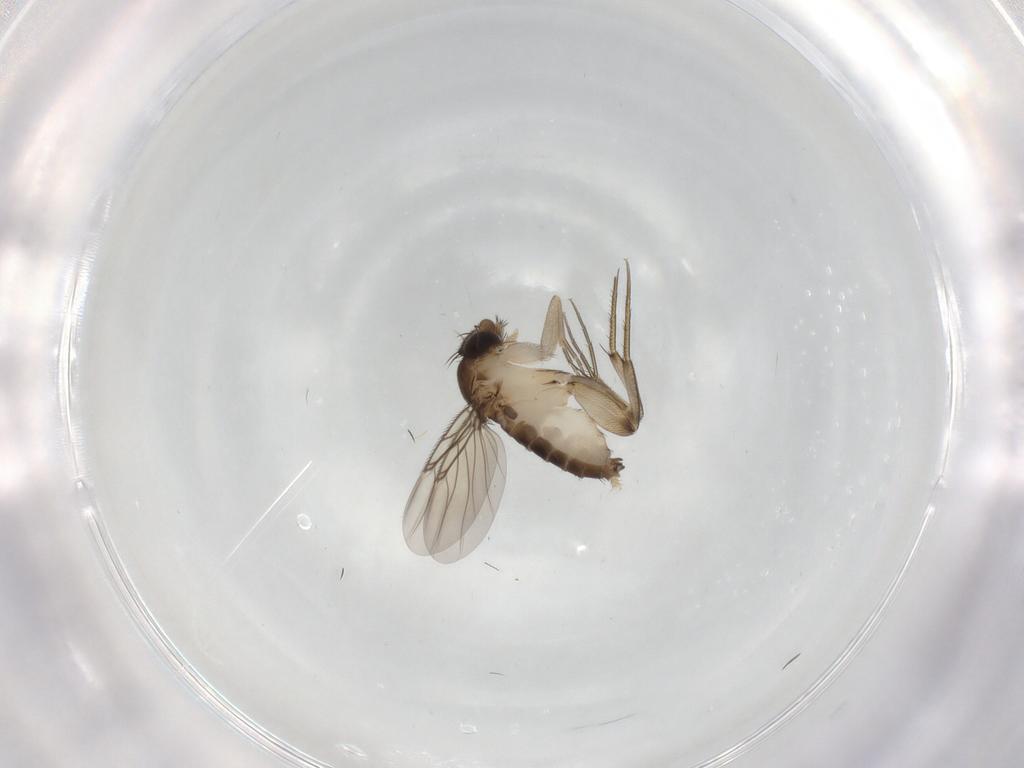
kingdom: Animalia
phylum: Arthropoda
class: Insecta
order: Diptera
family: Phoridae
